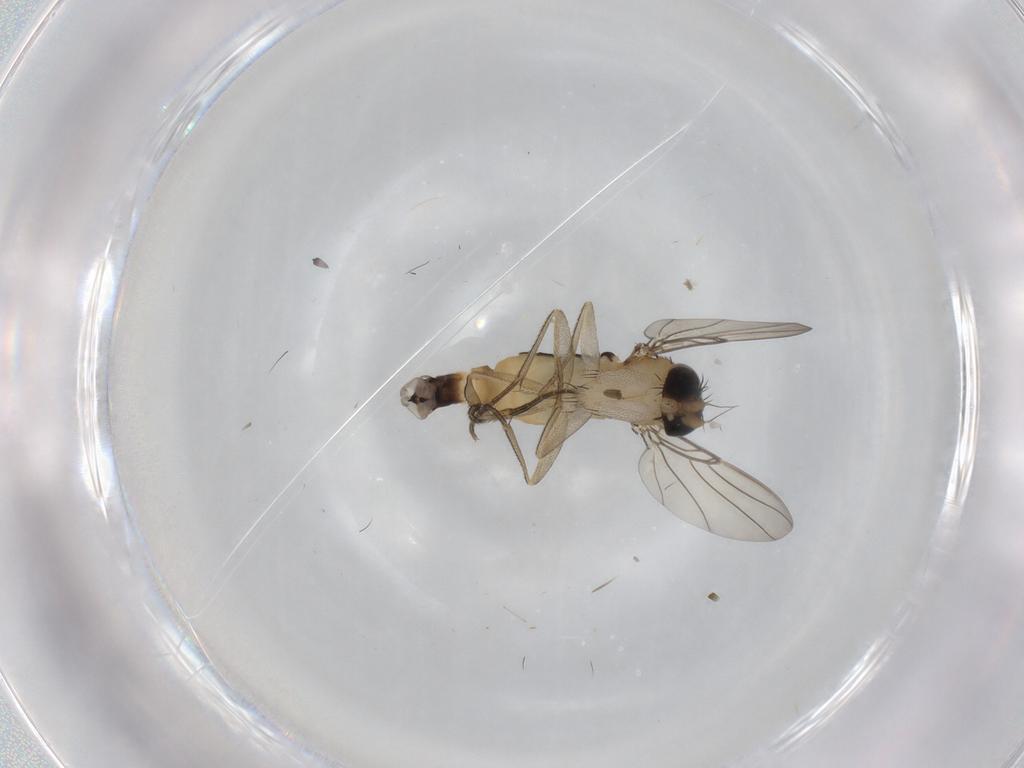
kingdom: Animalia
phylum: Arthropoda
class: Insecta
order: Diptera
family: Phoridae
